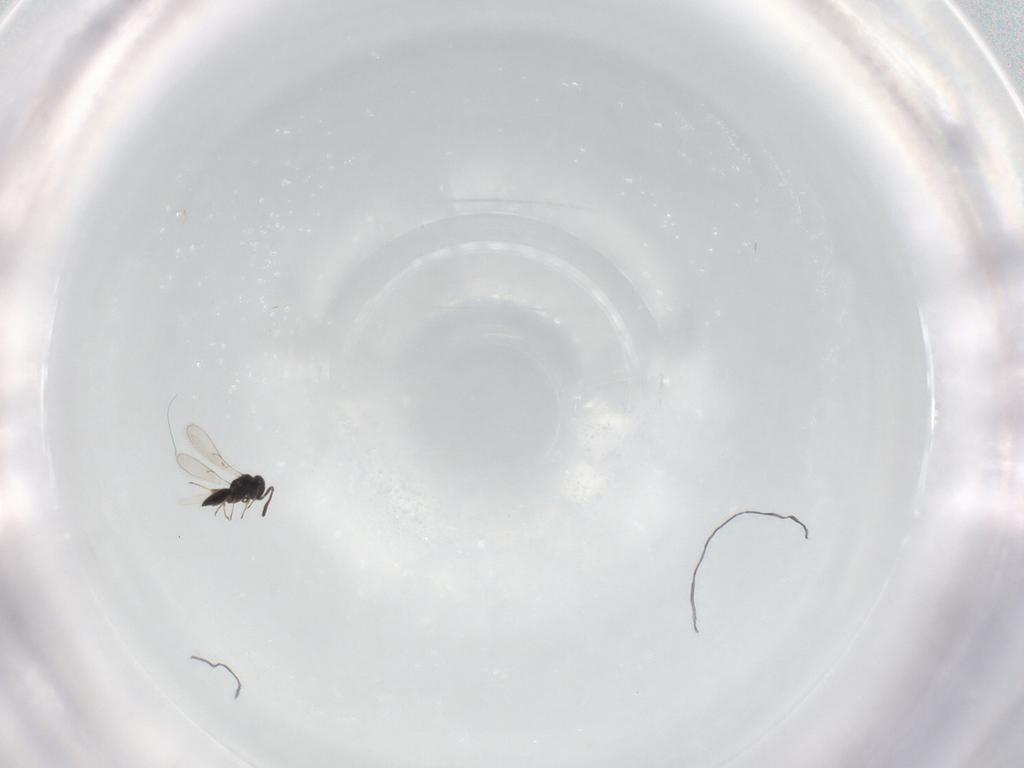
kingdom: Animalia
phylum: Arthropoda
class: Insecta
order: Hymenoptera
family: Scelionidae
